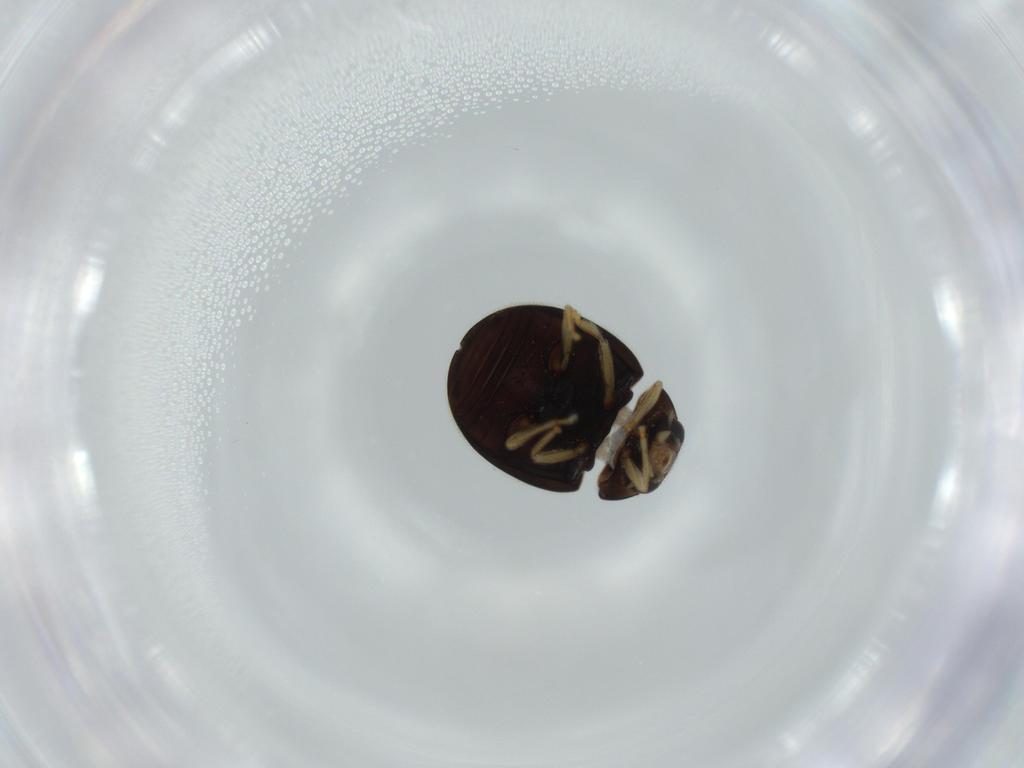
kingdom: Animalia
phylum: Arthropoda
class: Insecta
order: Coleoptera
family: Coccinellidae
